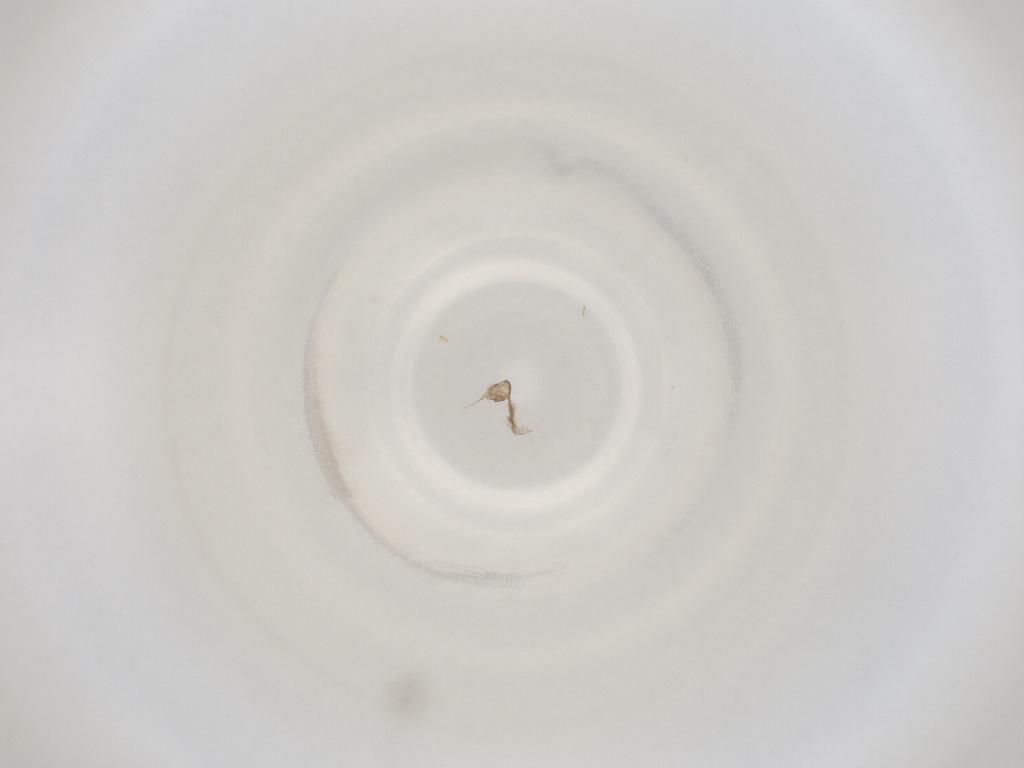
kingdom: Animalia
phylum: Arthropoda
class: Insecta
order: Diptera
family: Cecidomyiidae
